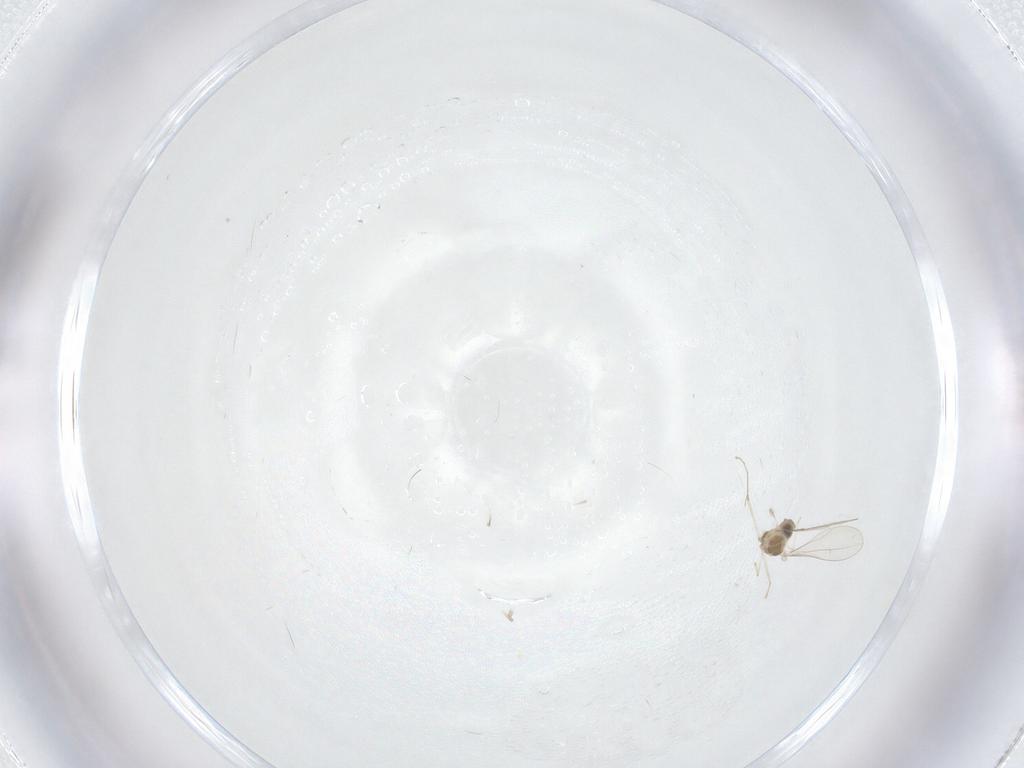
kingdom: Animalia
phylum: Arthropoda
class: Insecta
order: Diptera
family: Cecidomyiidae
